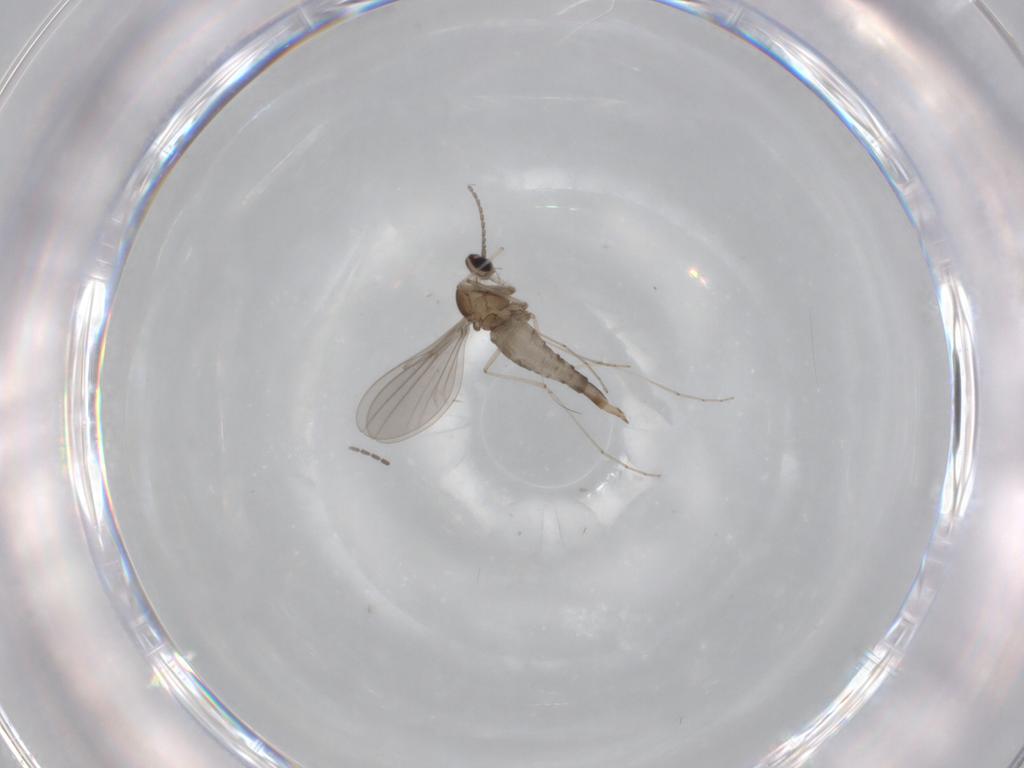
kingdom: Animalia
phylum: Arthropoda
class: Insecta
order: Diptera
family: Cecidomyiidae
